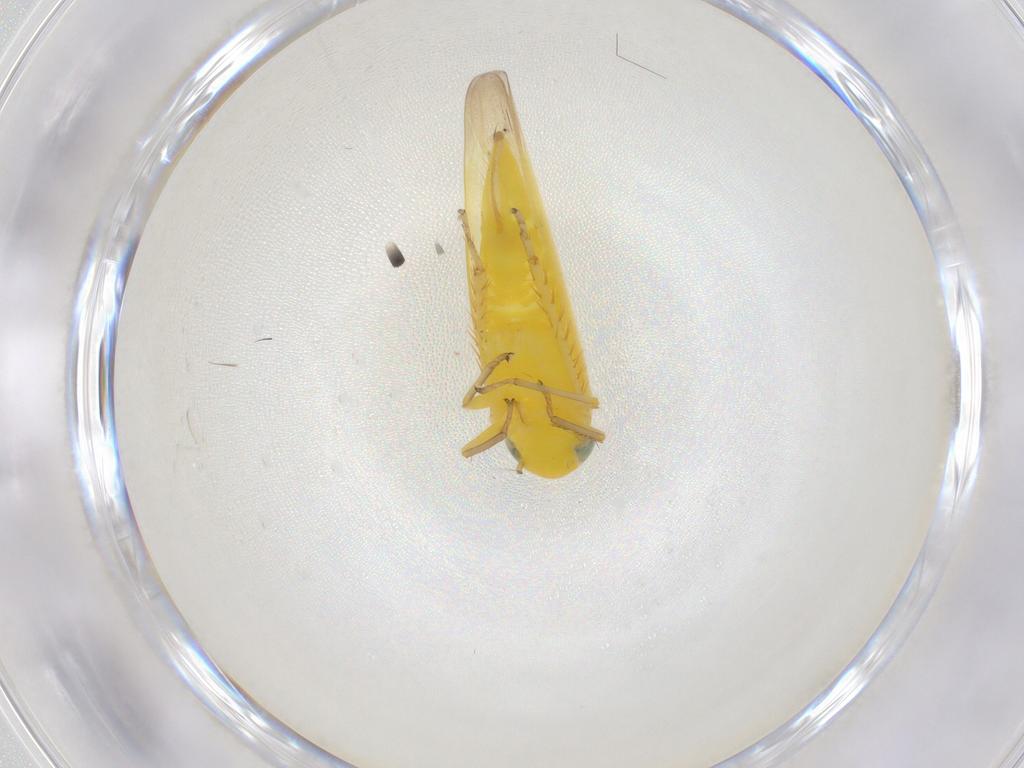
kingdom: Animalia
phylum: Arthropoda
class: Insecta
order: Hemiptera
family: Cicadellidae
